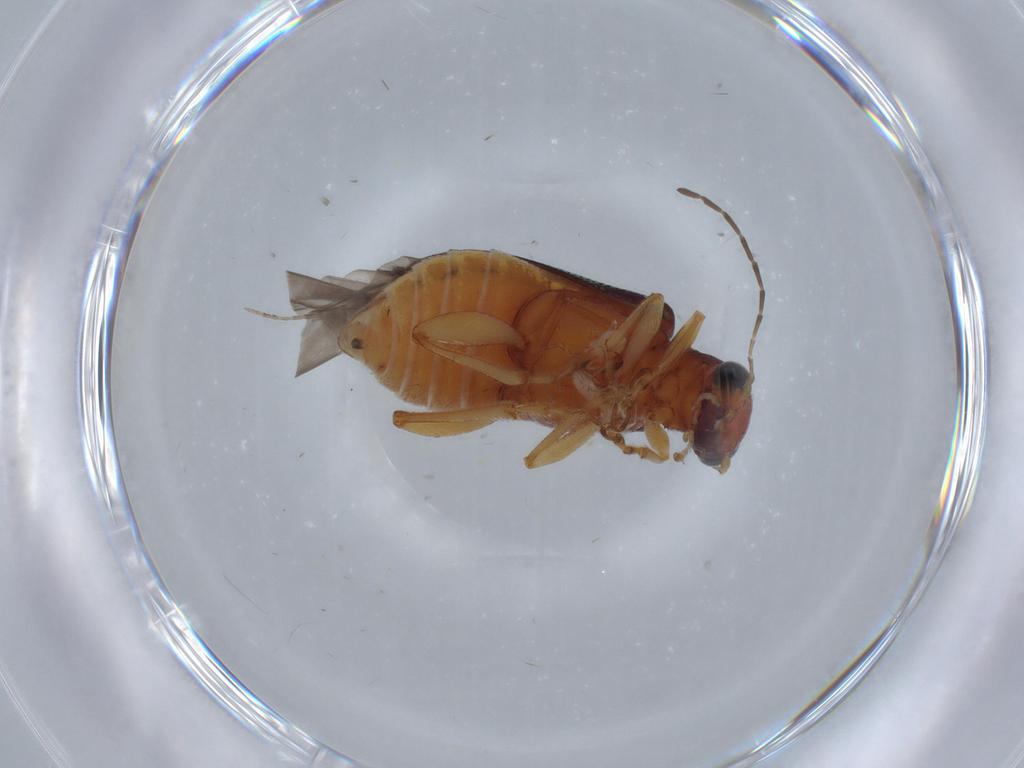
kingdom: Animalia
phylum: Arthropoda
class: Insecta
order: Coleoptera
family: Chrysomelidae
